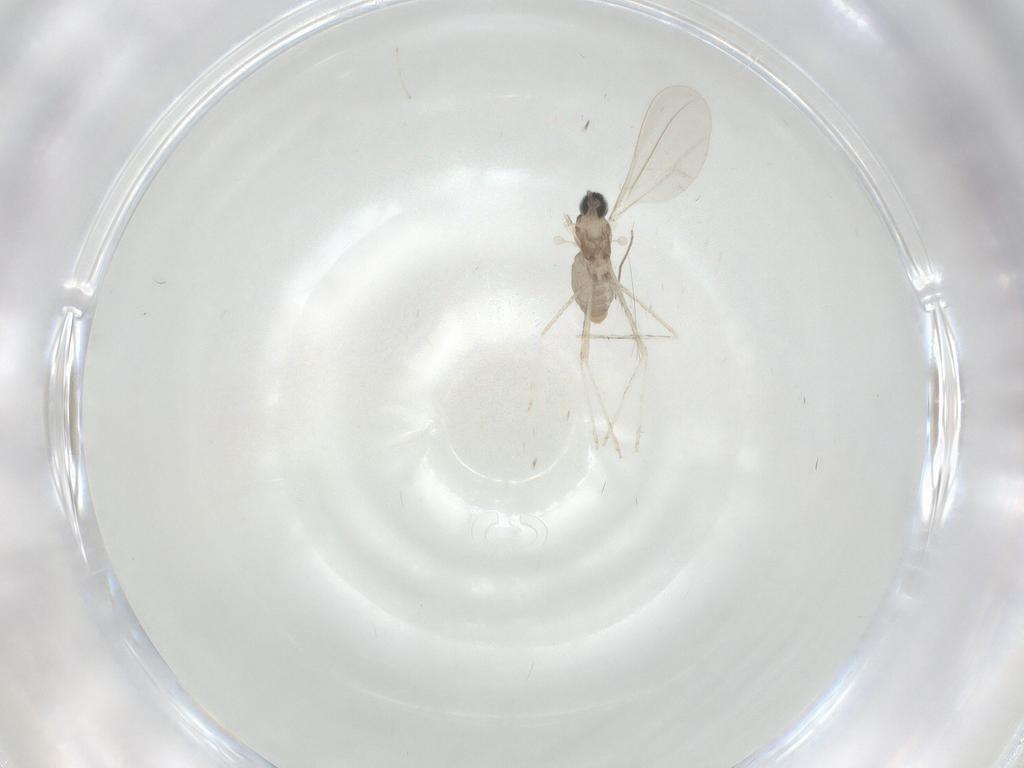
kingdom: Animalia
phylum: Arthropoda
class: Insecta
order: Diptera
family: Cecidomyiidae
